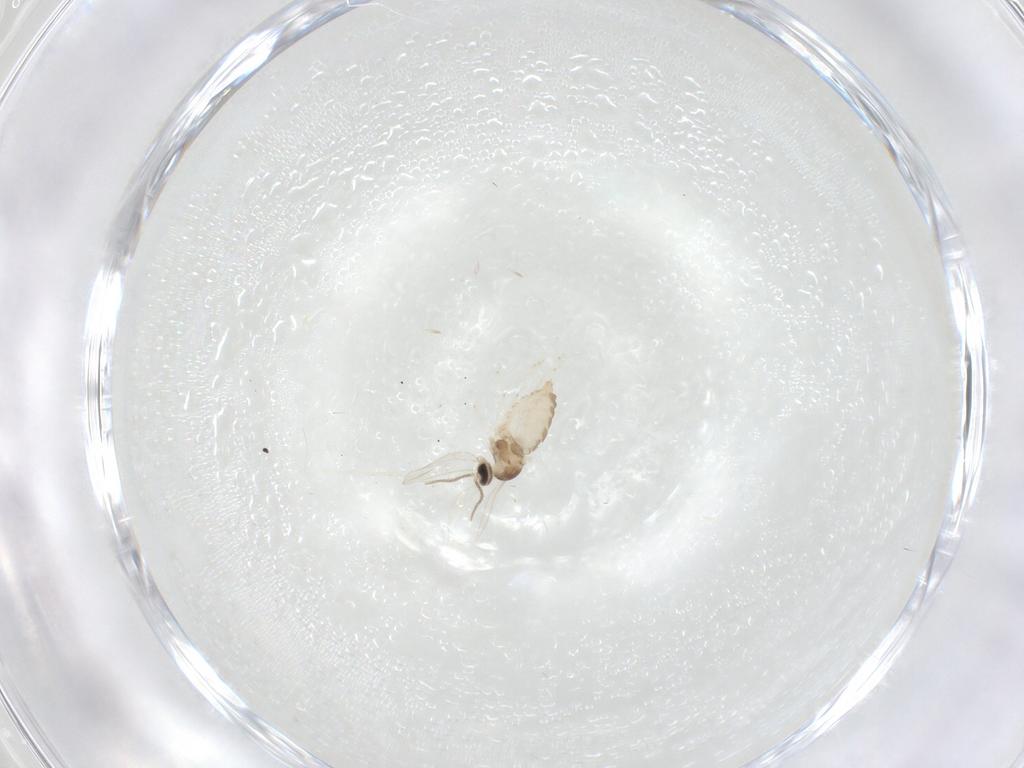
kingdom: Animalia
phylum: Arthropoda
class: Insecta
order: Diptera
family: Cecidomyiidae
